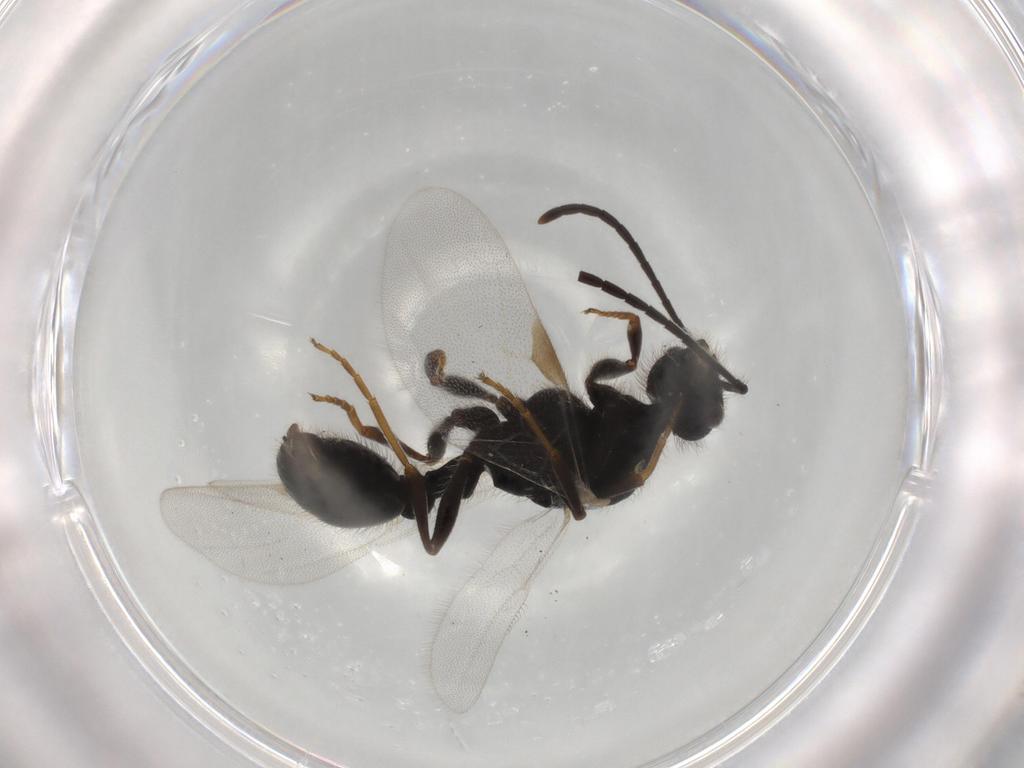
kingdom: Animalia
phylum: Arthropoda
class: Insecta
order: Hymenoptera
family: Formicidae
